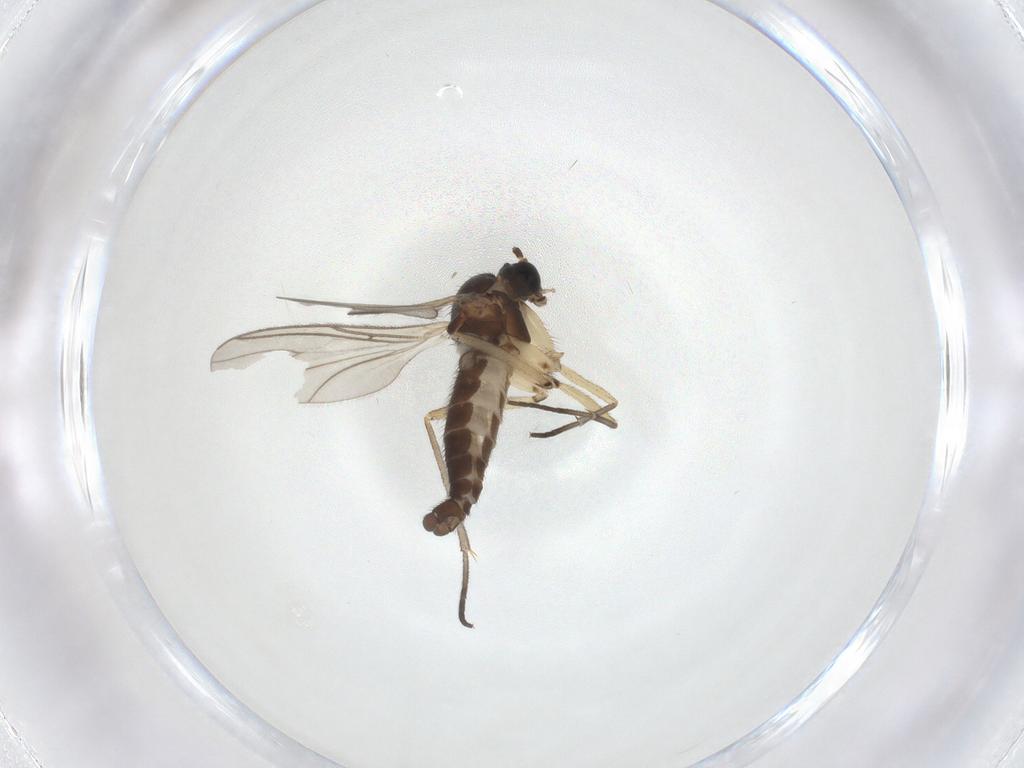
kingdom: Animalia
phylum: Arthropoda
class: Insecta
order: Diptera
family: Sciaridae
